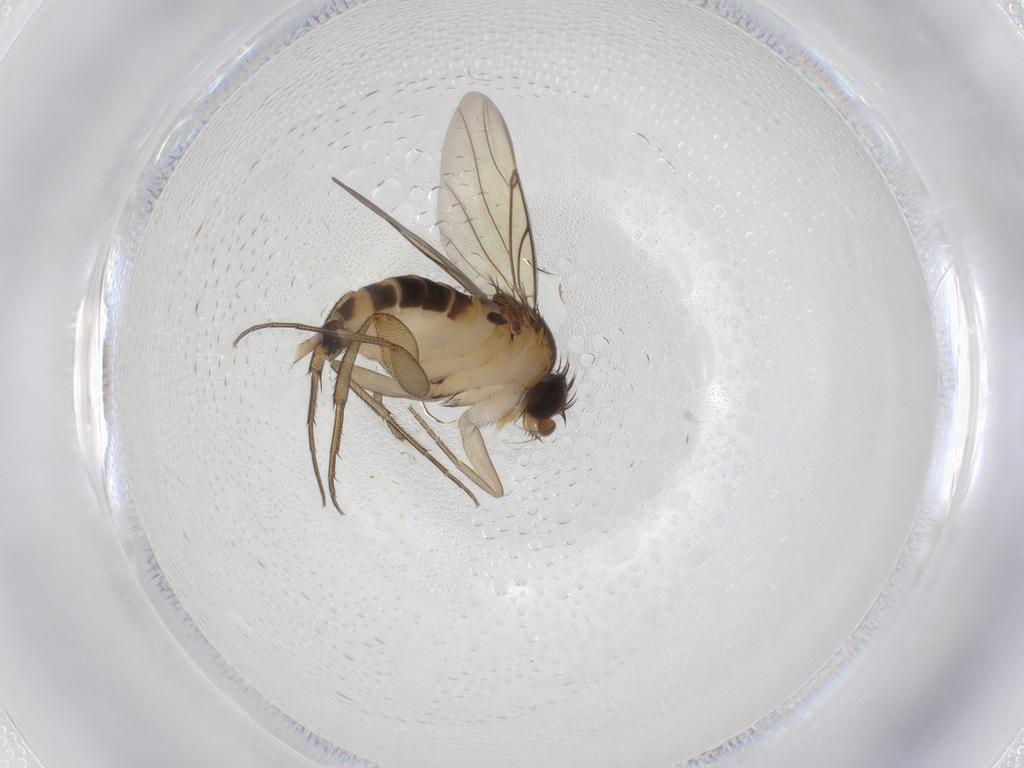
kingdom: Animalia
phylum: Arthropoda
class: Insecta
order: Diptera
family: Phoridae
